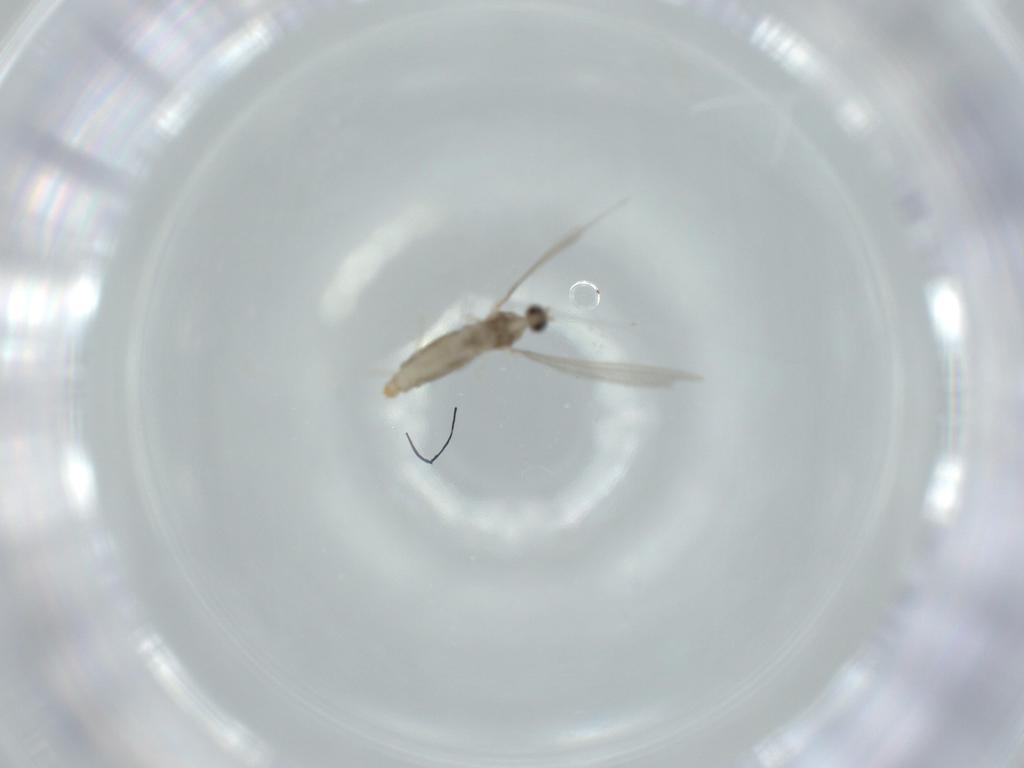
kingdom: Animalia
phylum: Arthropoda
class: Insecta
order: Diptera
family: Cecidomyiidae
